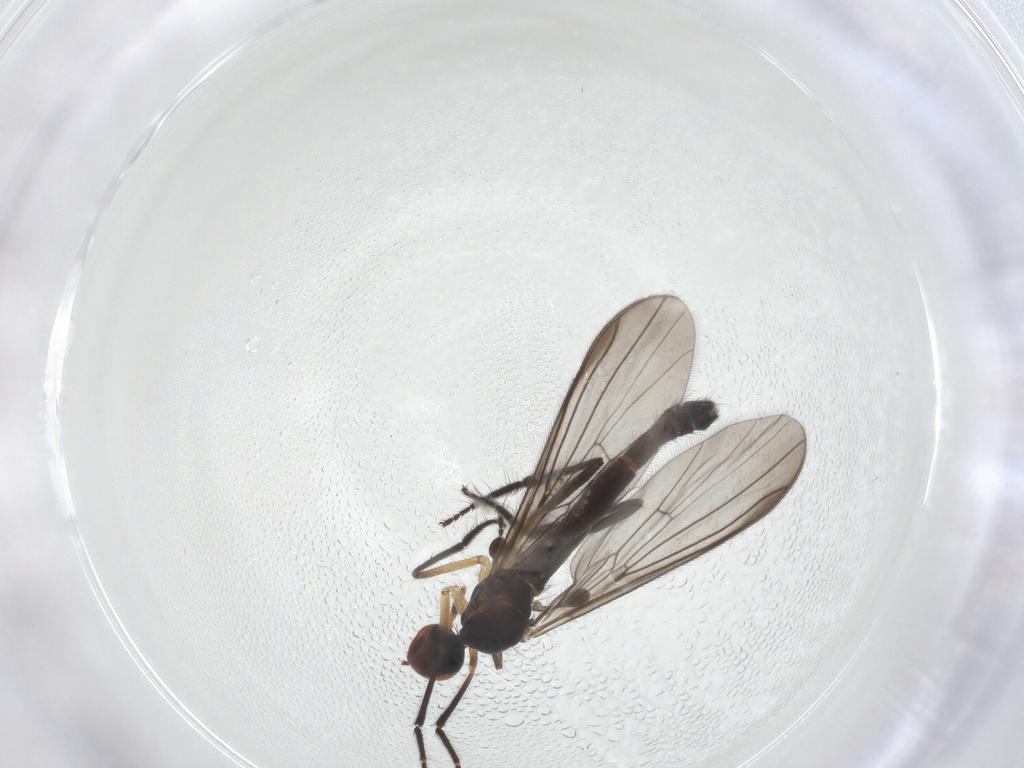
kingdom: Animalia
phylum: Arthropoda
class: Insecta
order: Diptera
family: Empididae
